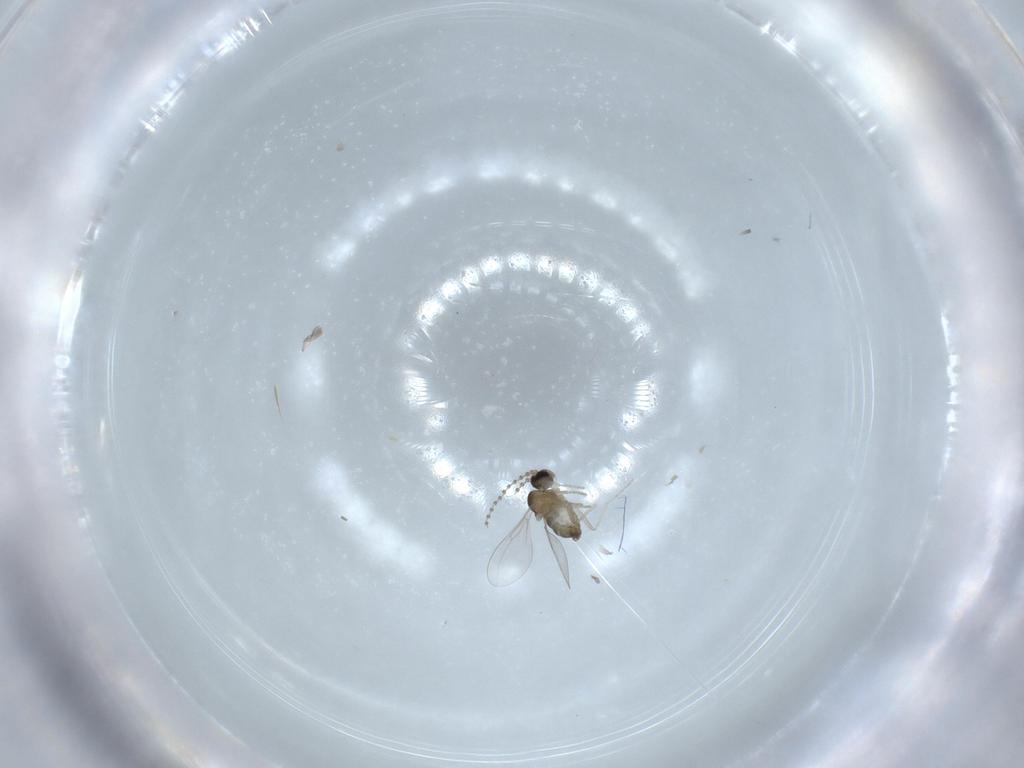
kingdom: Animalia
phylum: Arthropoda
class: Insecta
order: Diptera
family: Cecidomyiidae
